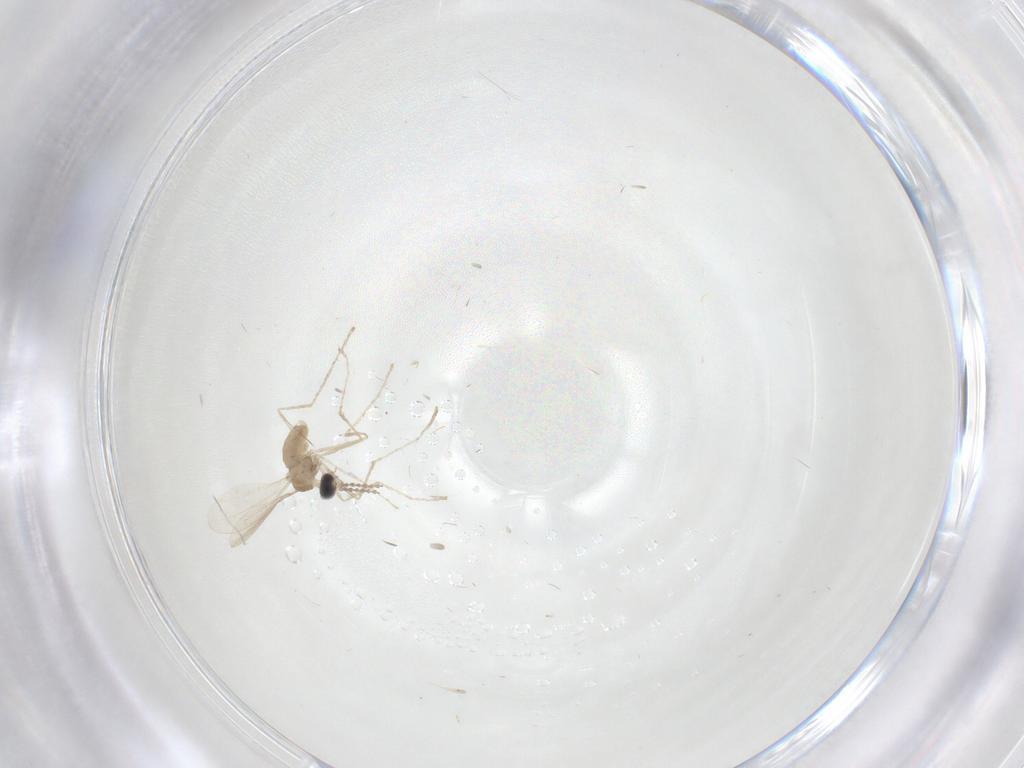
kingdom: Animalia
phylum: Arthropoda
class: Insecta
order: Diptera
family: Cecidomyiidae
